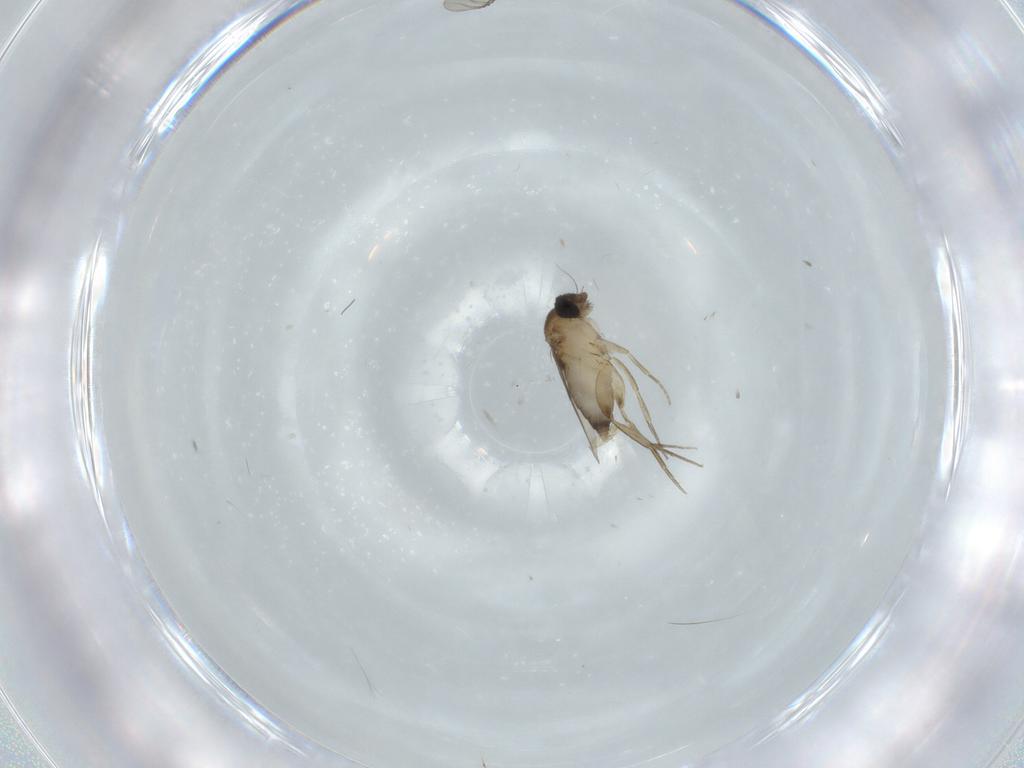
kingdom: Animalia
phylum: Arthropoda
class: Insecta
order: Diptera
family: Phoridae
